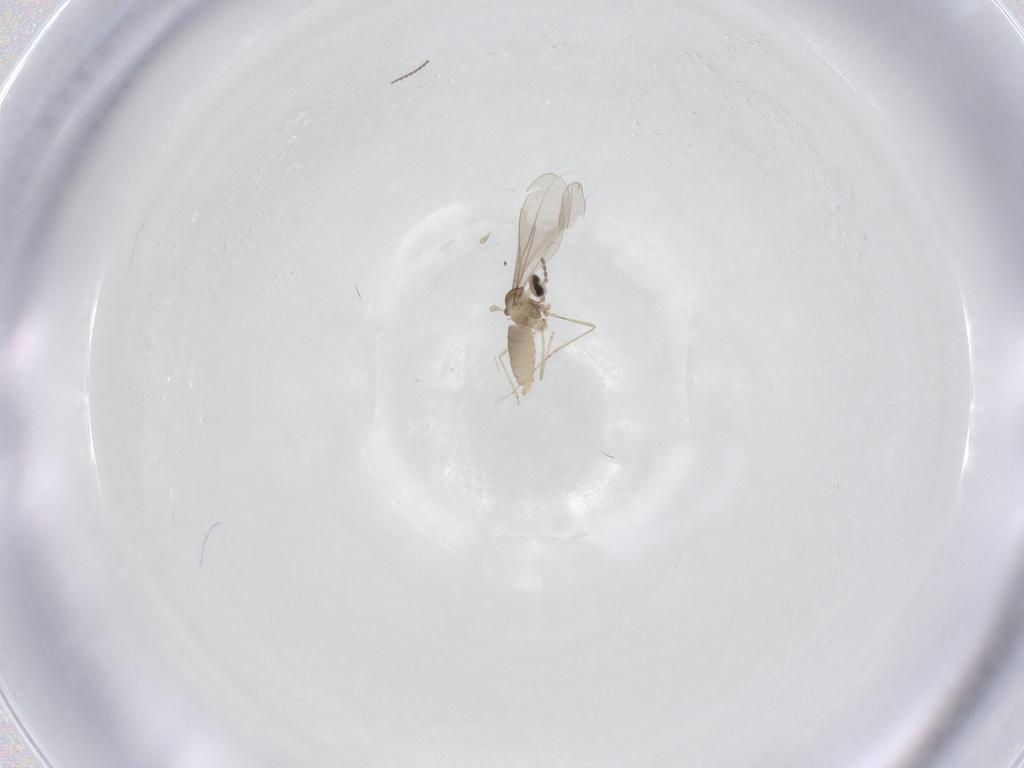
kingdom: Animalia
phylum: Arthropoda
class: Insecta
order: Diptera
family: Cecidomyiidae
